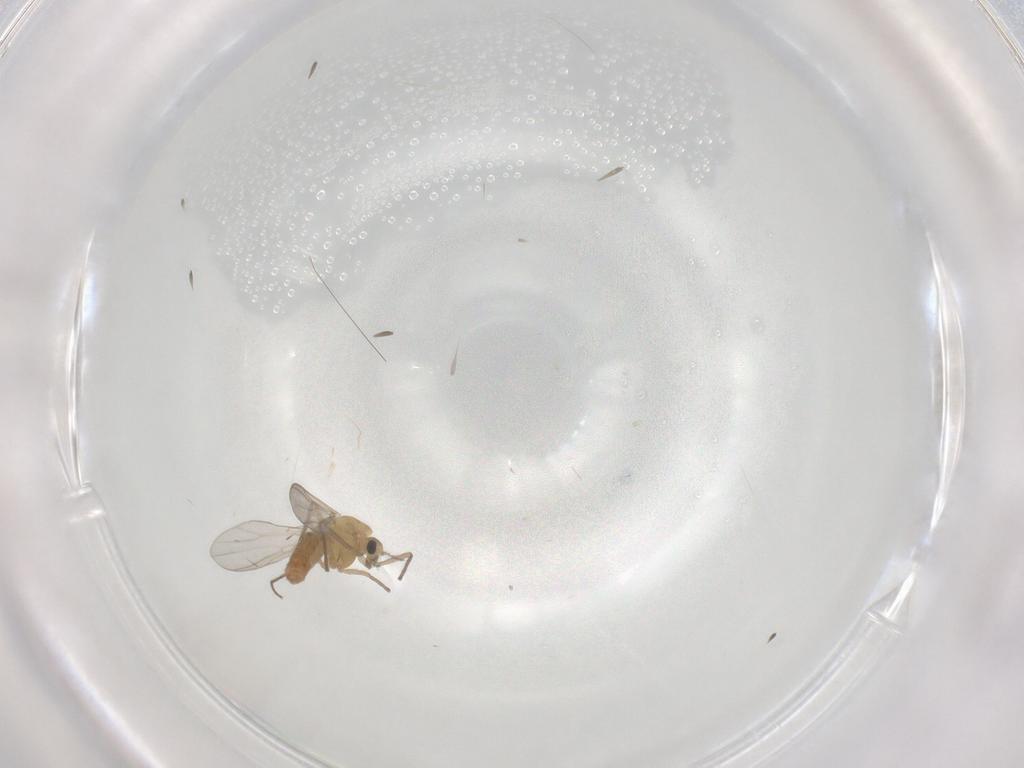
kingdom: Animalia
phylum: Arthropoda
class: Insecta
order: Diptera
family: Chironomidae
